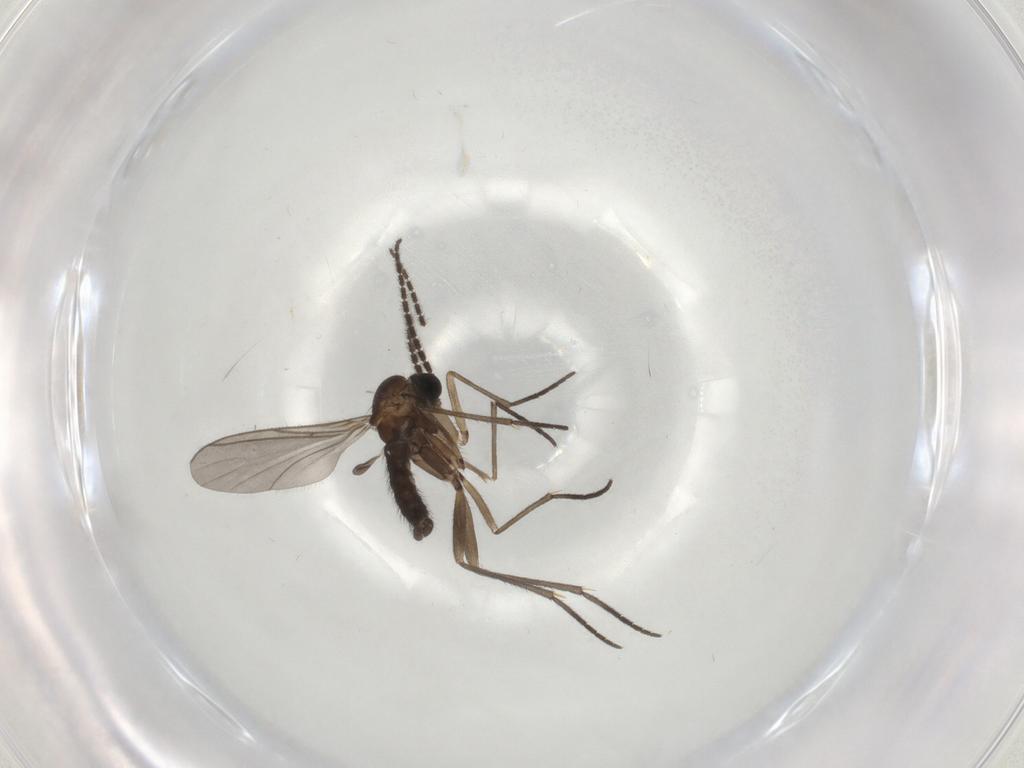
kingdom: Animalia
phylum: Arthropoda
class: Insecta
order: Diptera
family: Sciaridae
